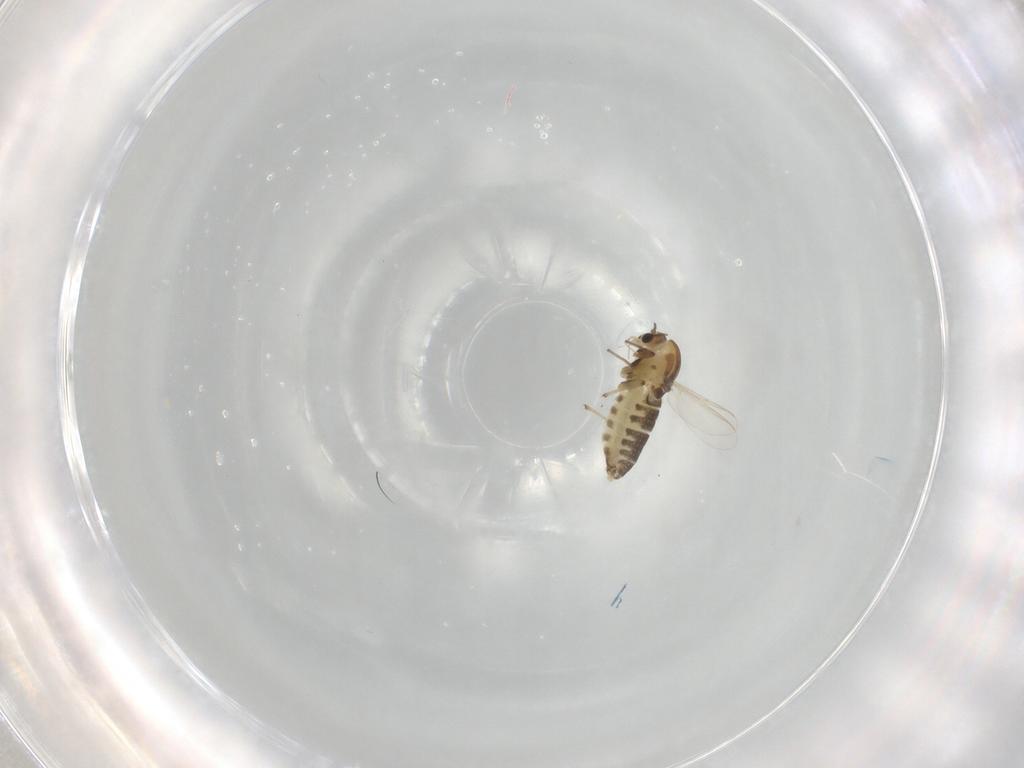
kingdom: Animalia
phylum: Arthropoda
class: Insecta
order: Diptera
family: Chironomidae
